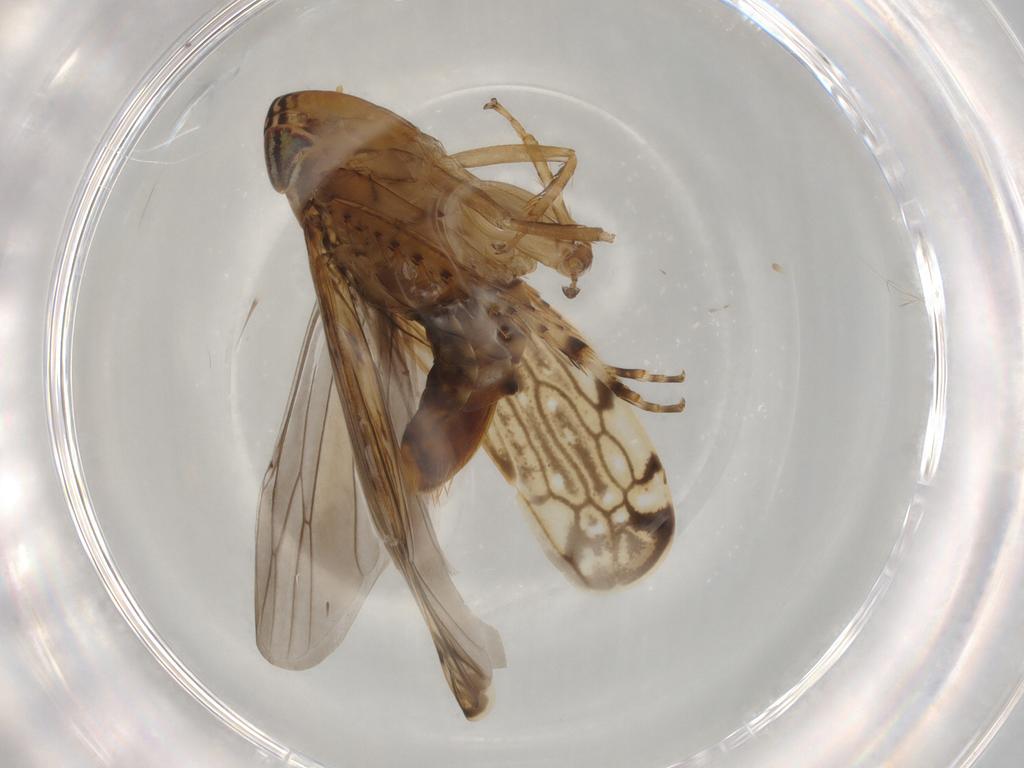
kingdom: Animalia
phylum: Arthropoda
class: Insecta
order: Hemiptera
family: Cicadellidae
